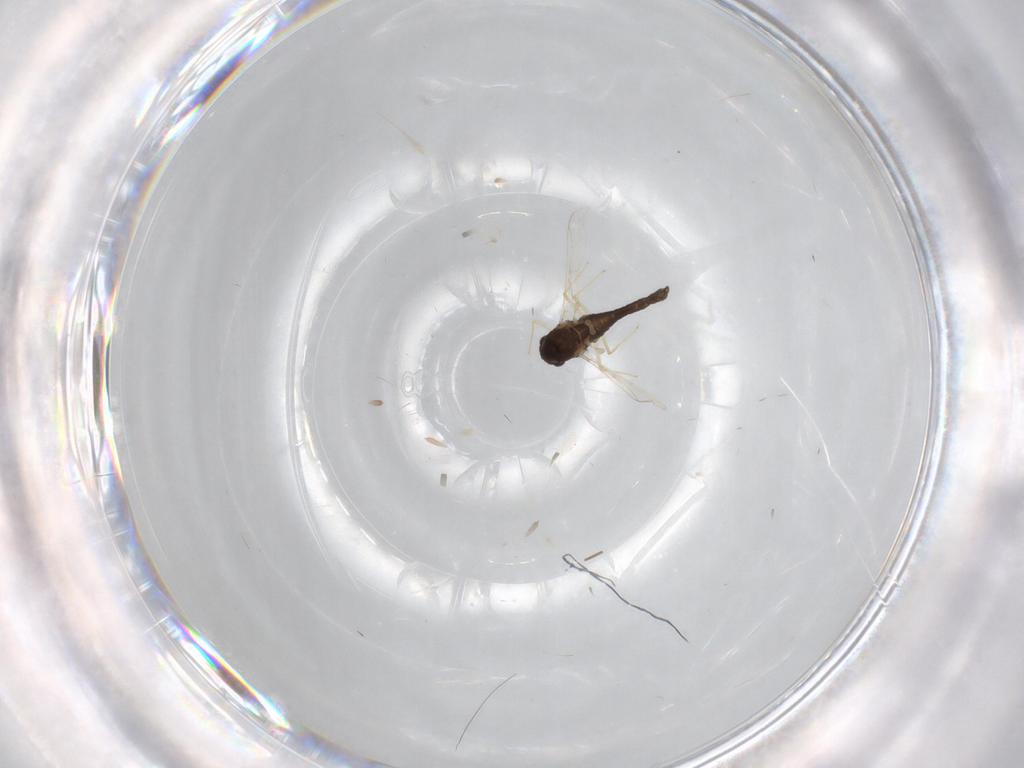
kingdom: Animalia
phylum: Arthropoda
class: Insecta
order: Diptera
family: Chironomidae
